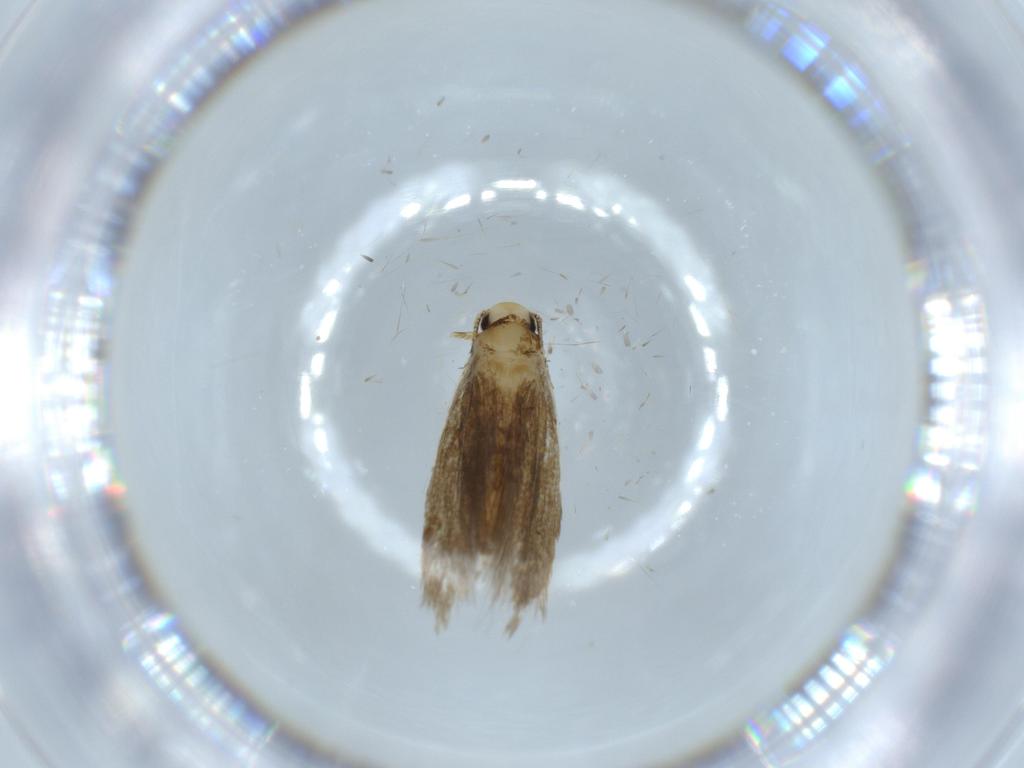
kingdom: Animalia
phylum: Arthropoda
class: Insecta
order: Lepidoptera
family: Tineidae
